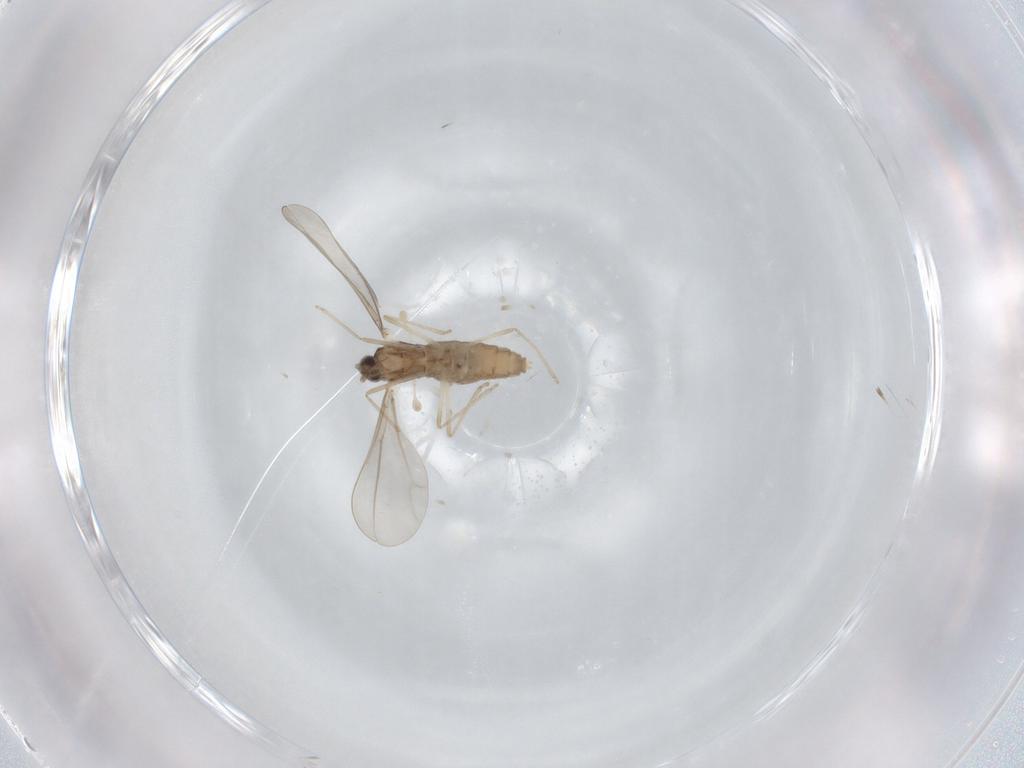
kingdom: Animalia
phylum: Arthropoda
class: Insecta
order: Diptera
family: Cecidomyiidae
